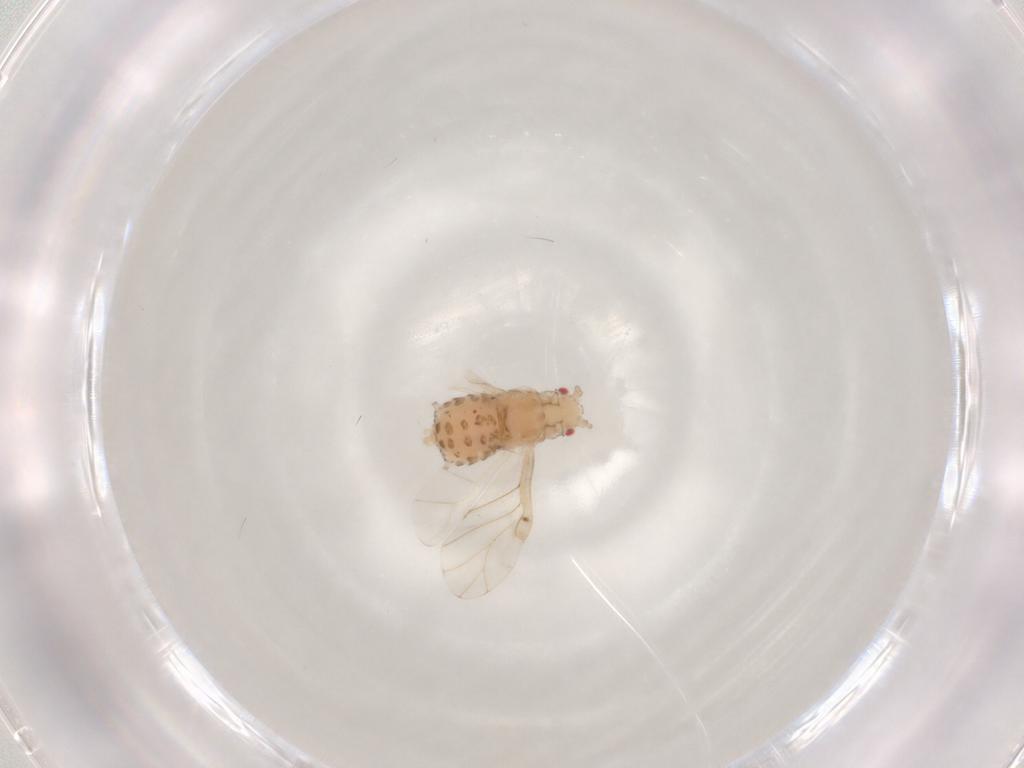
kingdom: Animalia
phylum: Arthropoda
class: Insecta
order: Hemiptera
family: Aphididae
